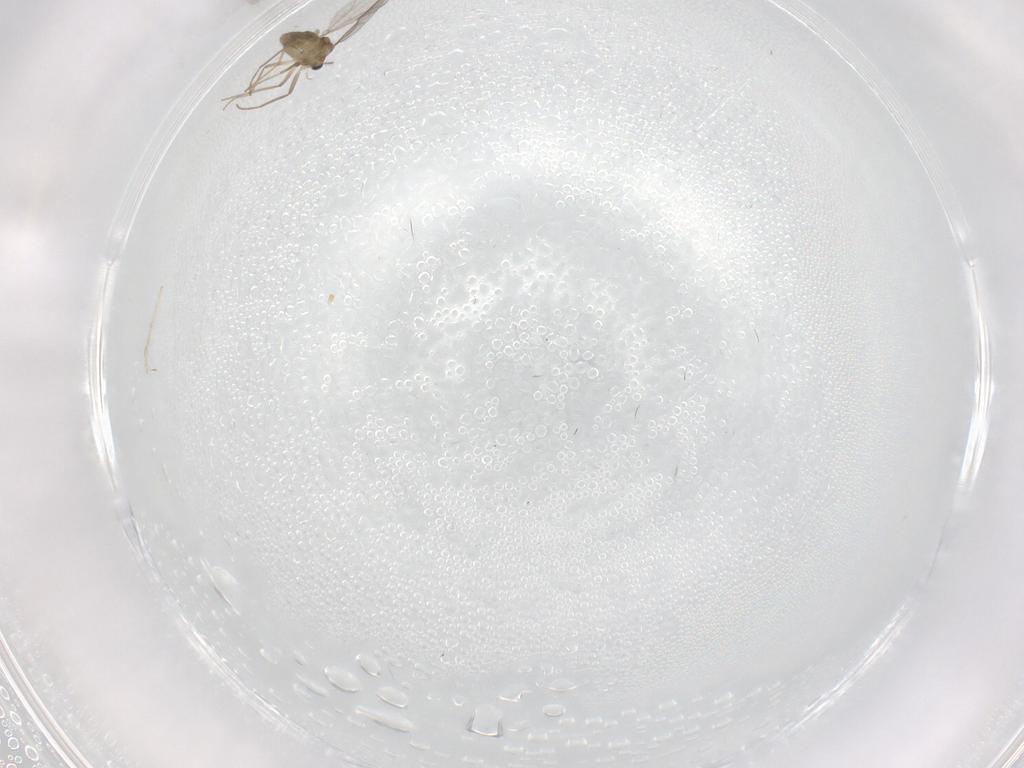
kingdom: Animalia
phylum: Arthropoda
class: Insecta
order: Diptera
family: Chironomidae
